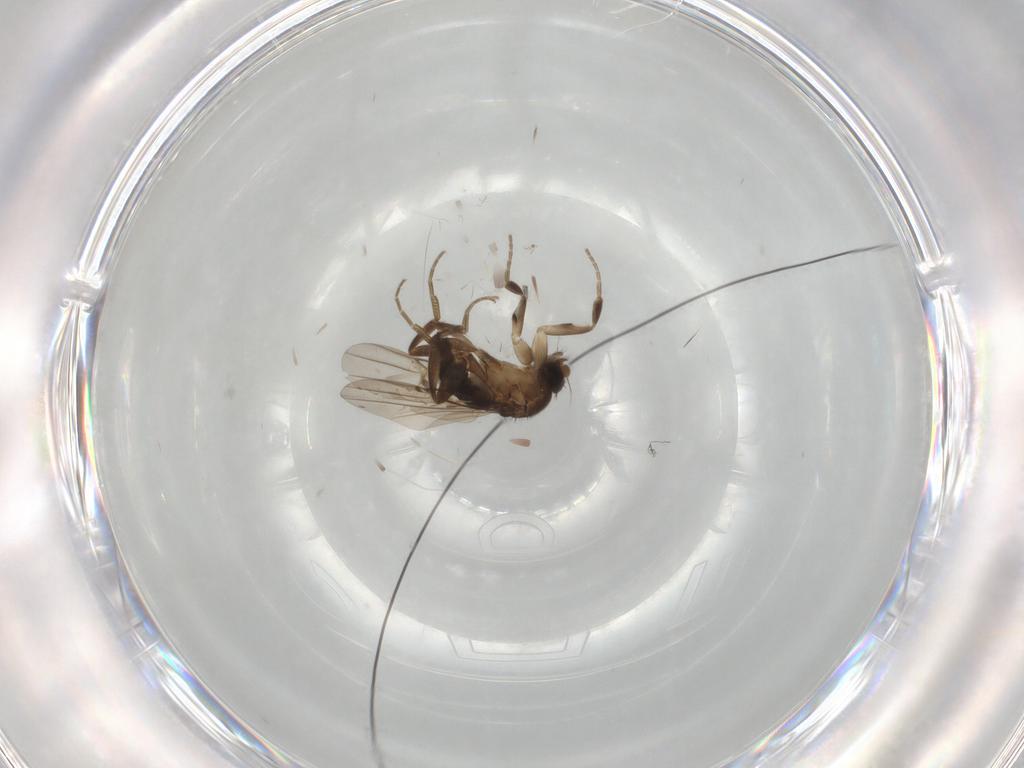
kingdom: Animalia
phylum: Arthropoda
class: Insecta
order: Diptera
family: Phoridae
